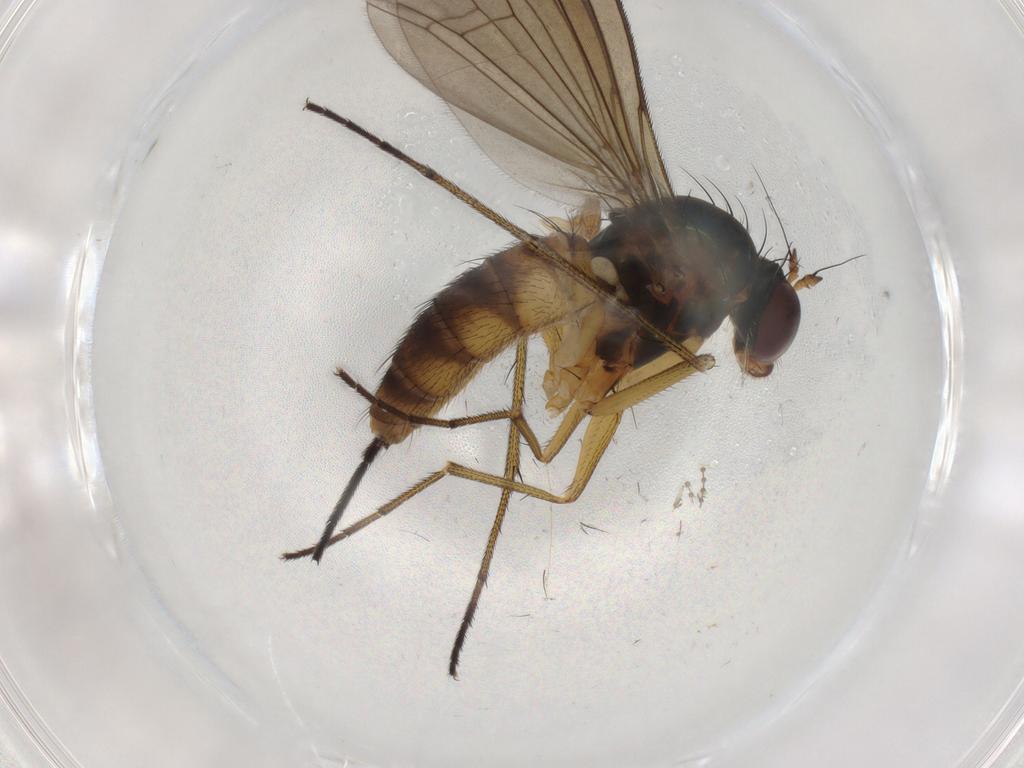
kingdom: Animalia
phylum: Arthropoda
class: Insecta
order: Diptera
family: Dolichopodidae
